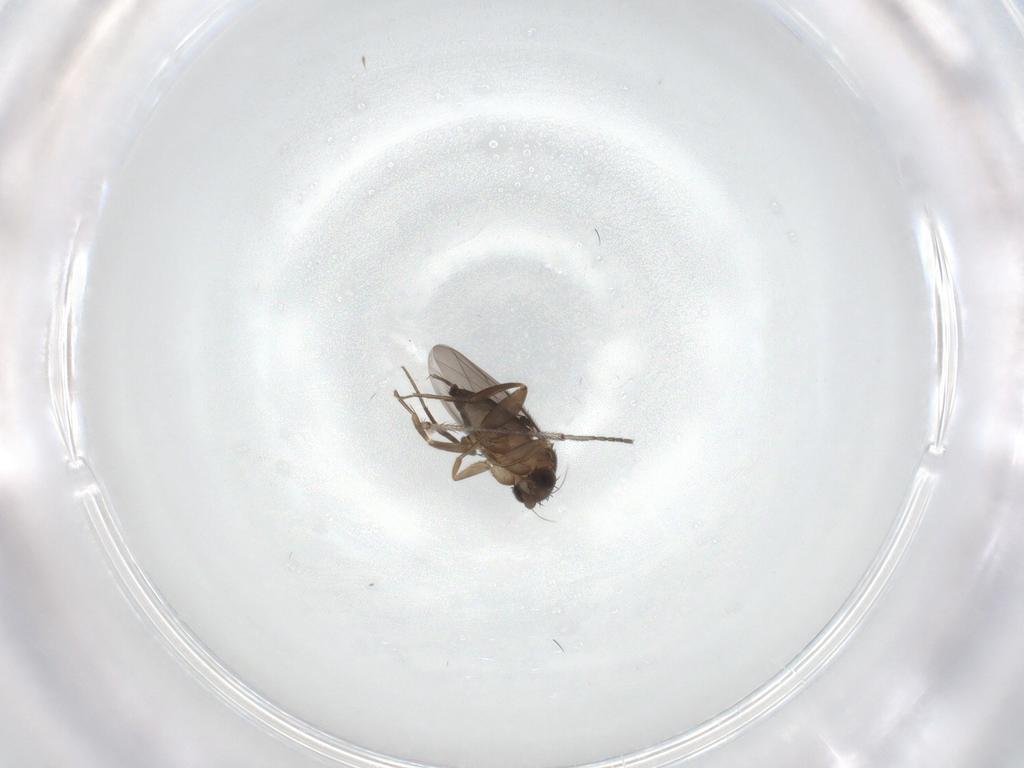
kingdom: Animalia
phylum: Arthropoda
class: Insecta
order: Diptera
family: Phoridae
